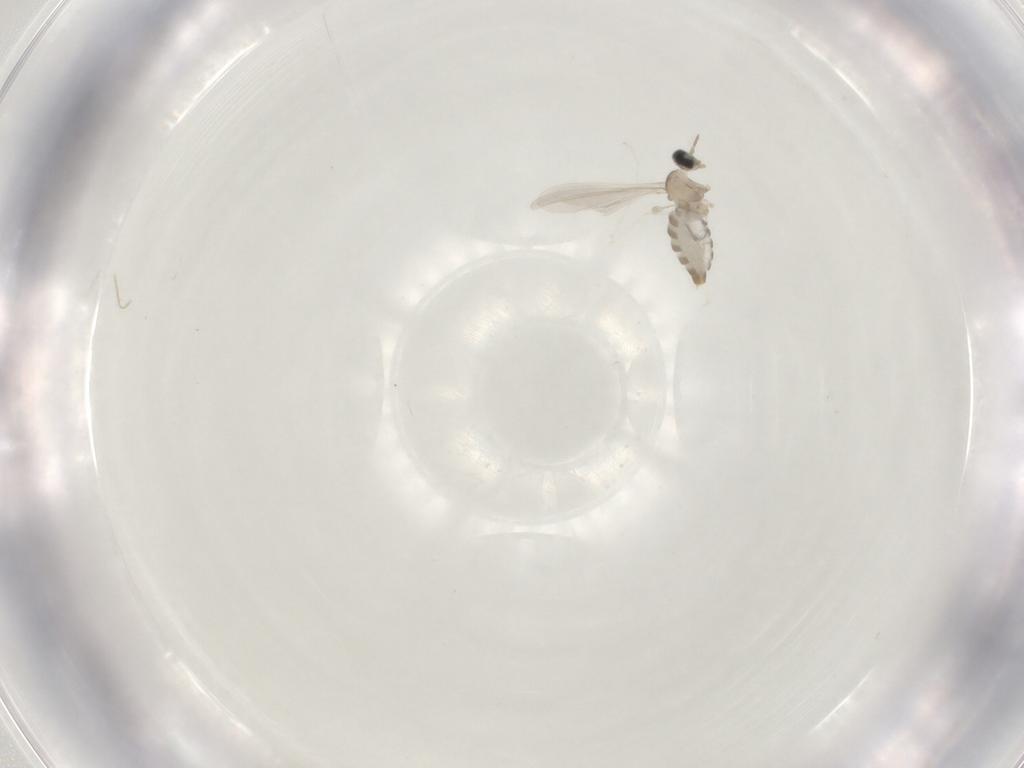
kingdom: Animalia
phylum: Arthropoda
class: Insecta
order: Diptera
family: Cecidomyiidae
